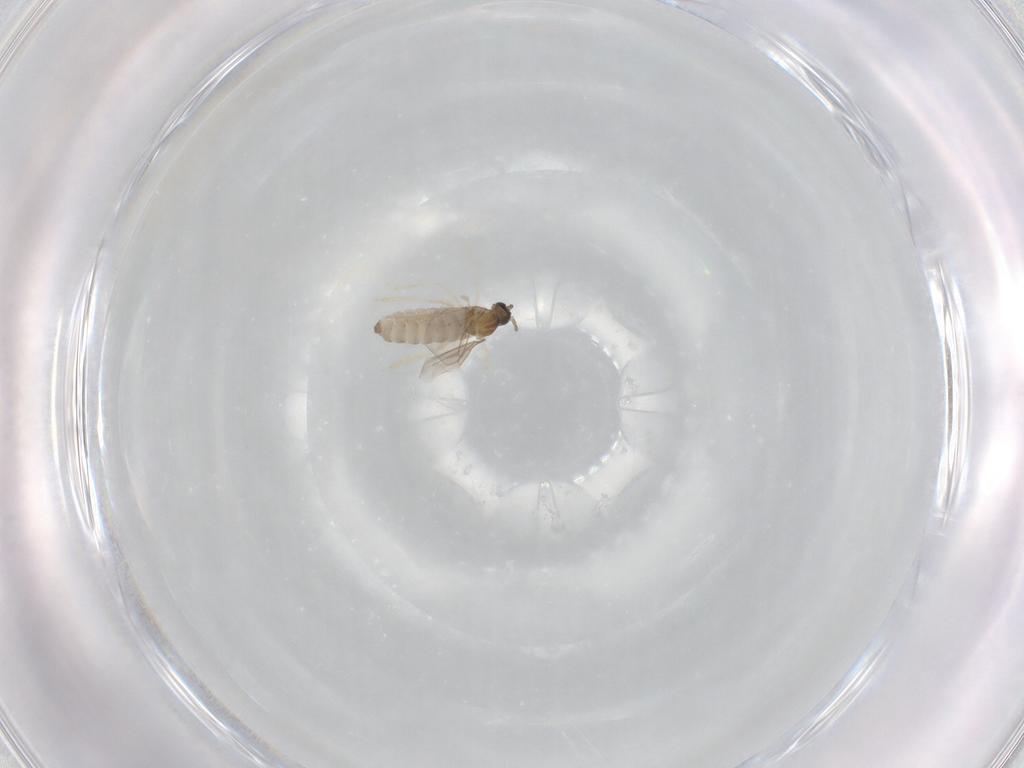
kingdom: Animalia
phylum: Arthropoda
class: Insecta
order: Diptera
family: Cecidomyiidae
